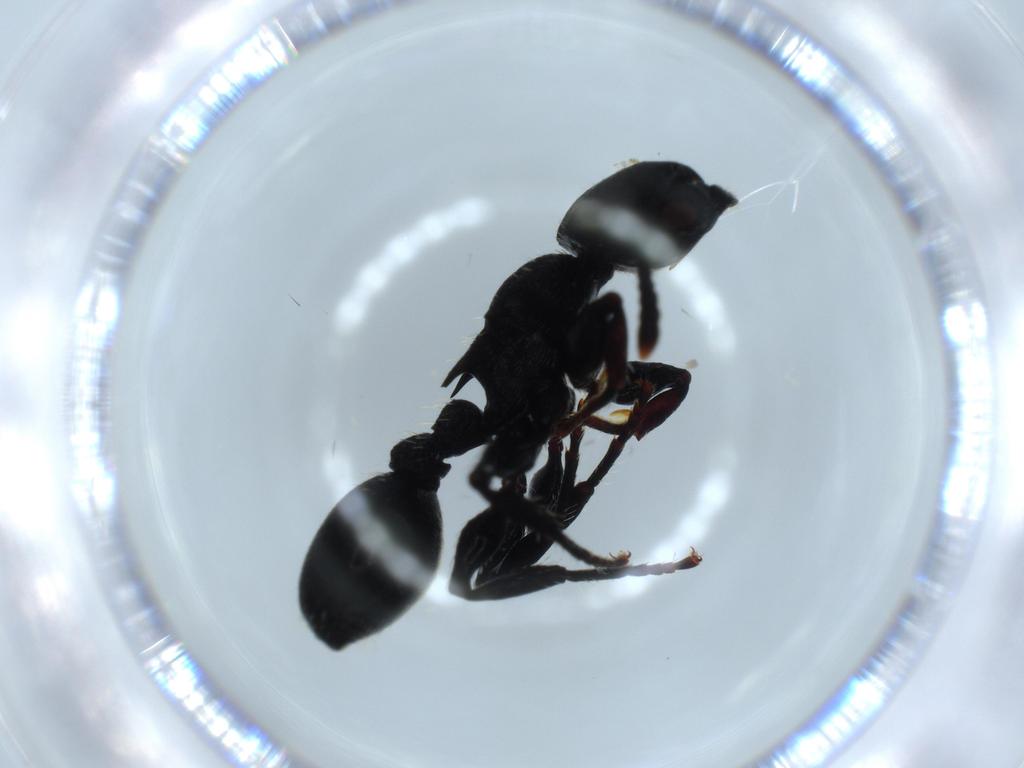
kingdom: Animalia
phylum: Arthropoda
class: Insecta
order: Hymenoptera
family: Formicidae
